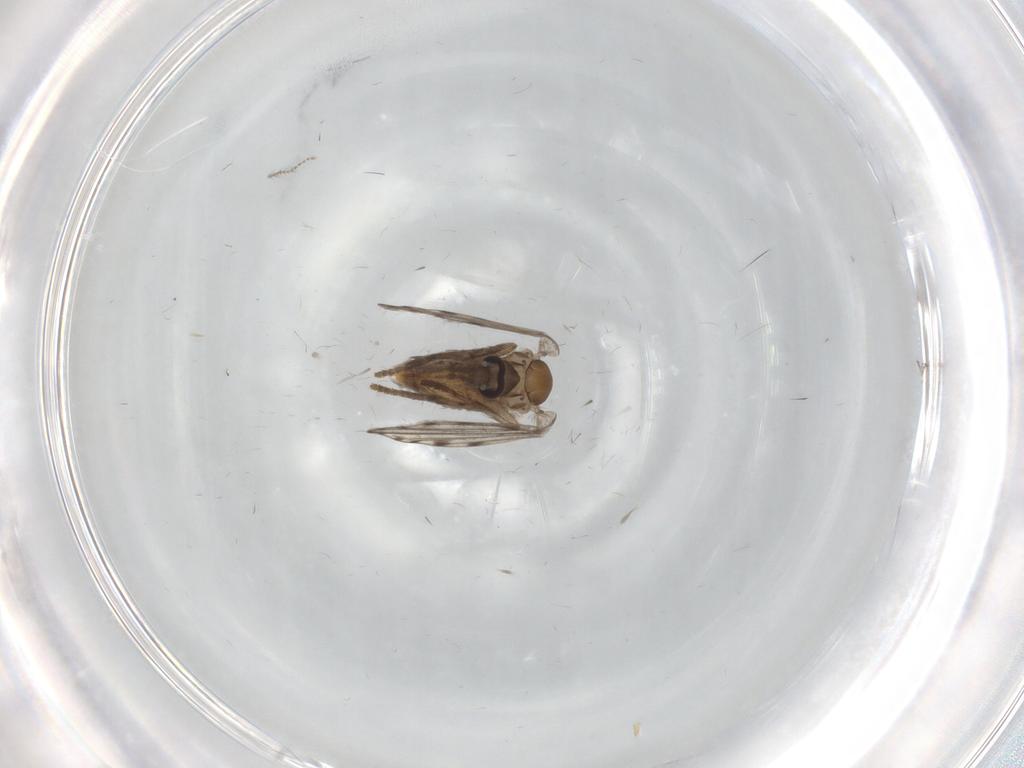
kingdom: Animalia
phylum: Arthropoda
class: Insecta
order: Diptera
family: Psychodidae
